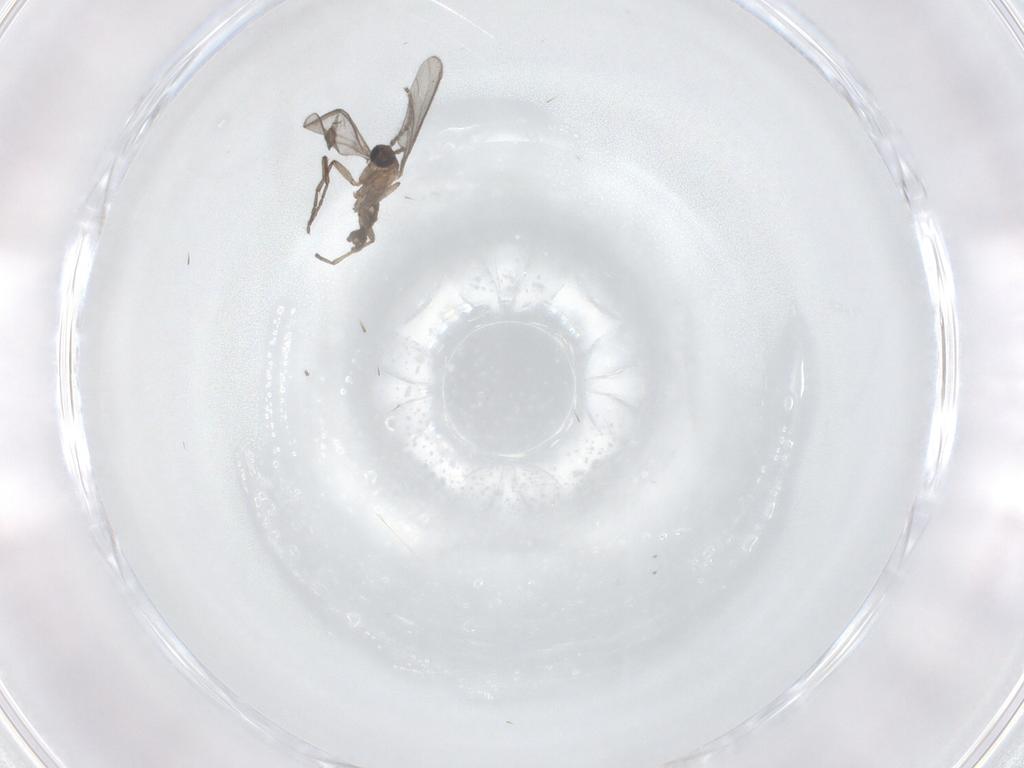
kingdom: Animalia
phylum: Arthropoda
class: Insecta
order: Diptera
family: Sciaridae
